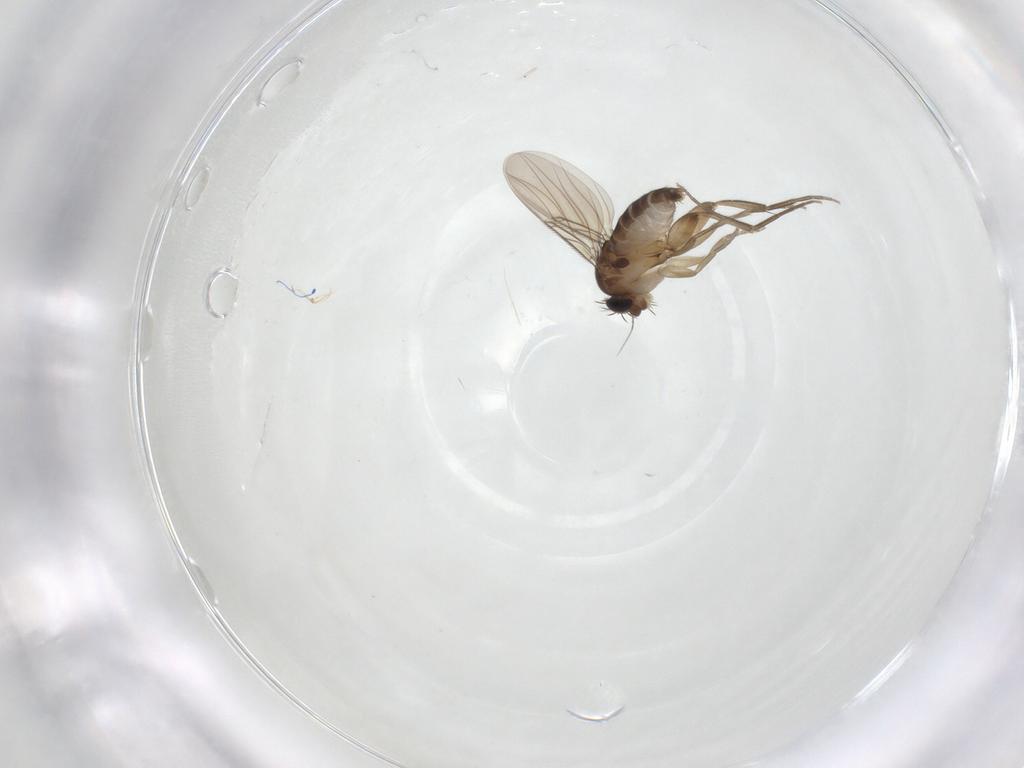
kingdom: Animalia
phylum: Arthropoda
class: Insecta
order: Diptera
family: Phoridae
